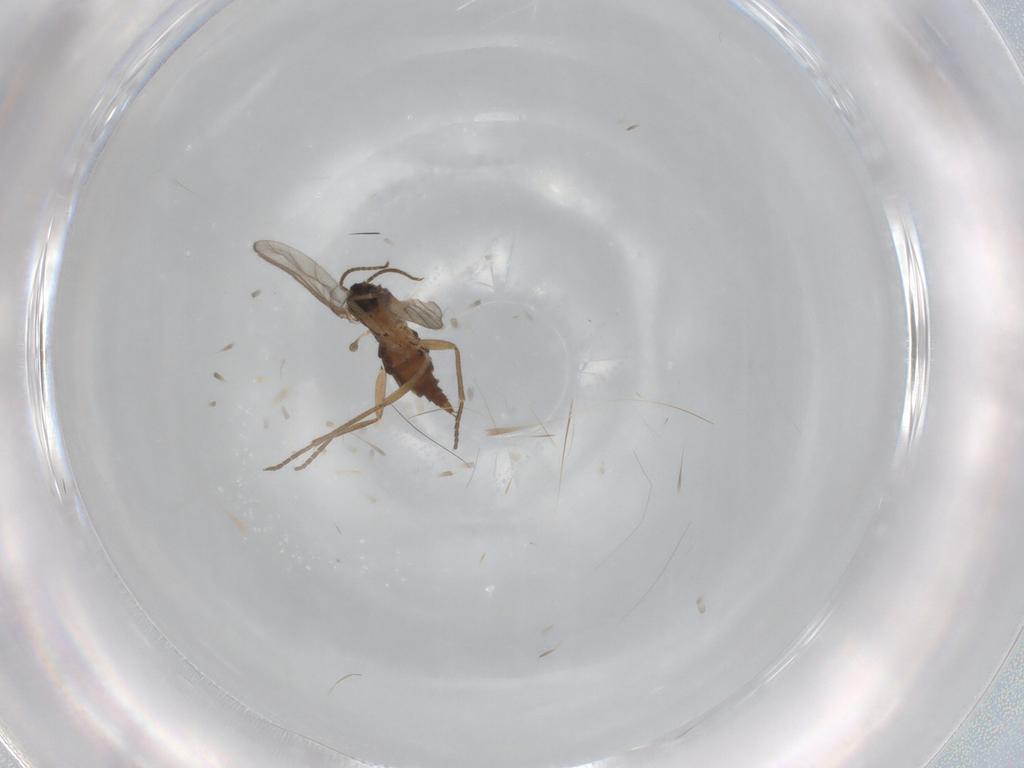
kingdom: Animalia
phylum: Arthropoda
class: Insecta
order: Diptera
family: Sciaridae
